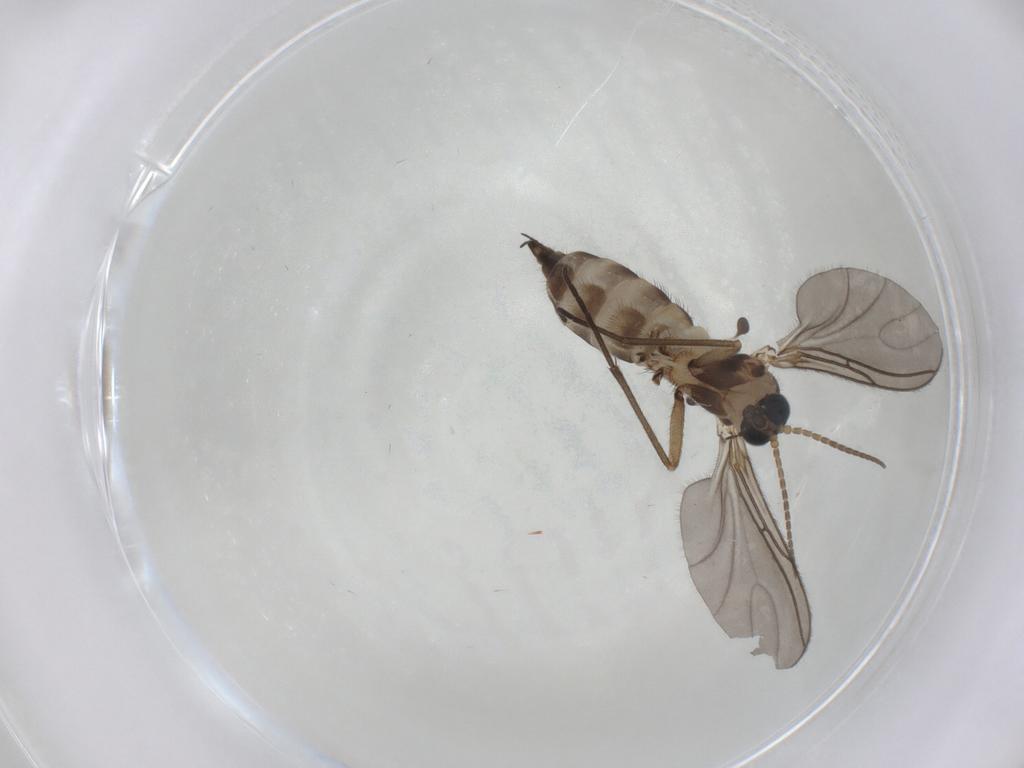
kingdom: Animalia
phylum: Arthropoda
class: Insecta
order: Diptera
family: Sciaridae
